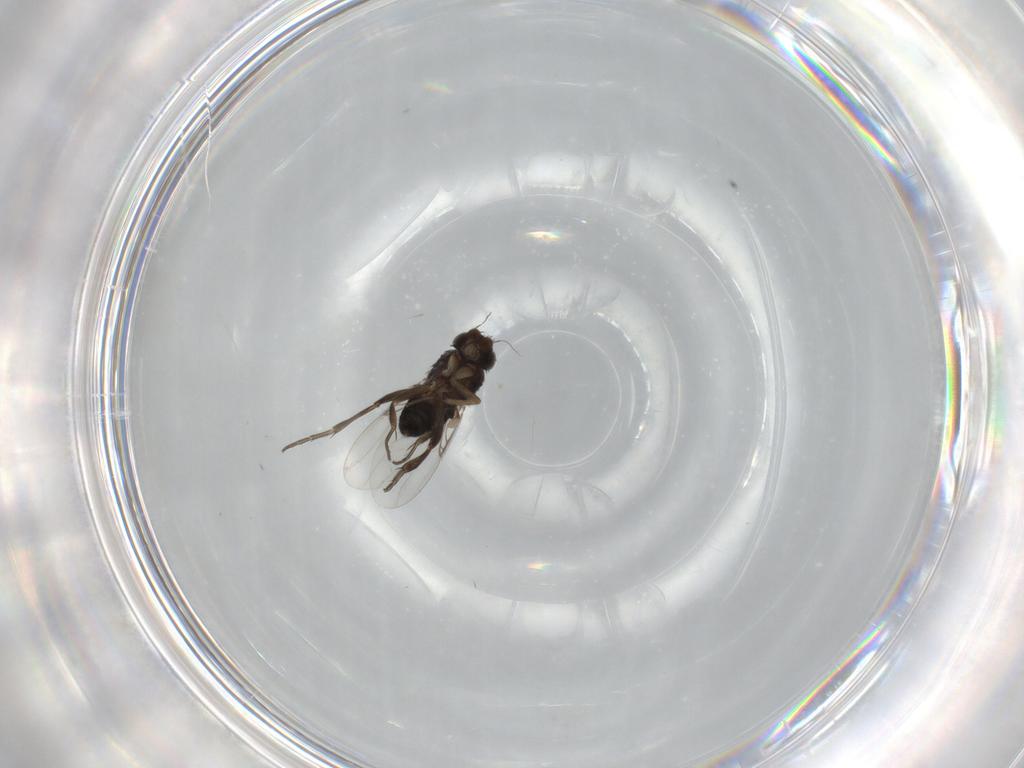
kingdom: Animalia
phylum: Arthropoda
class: Insecta
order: Diptera
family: Phoridae
